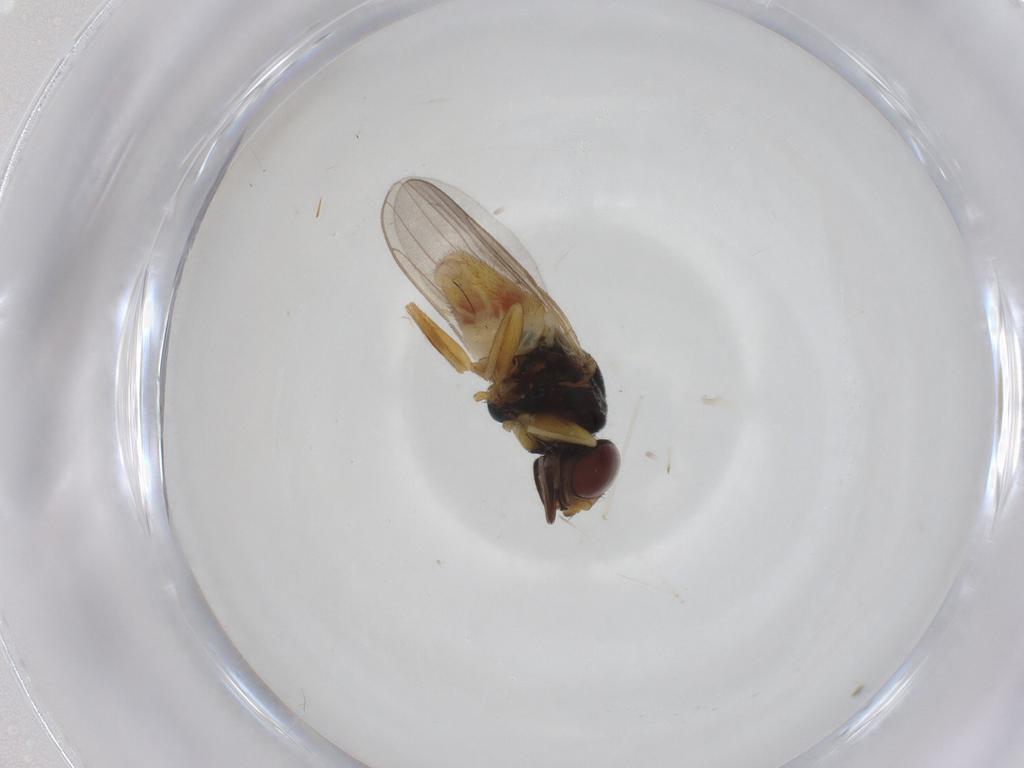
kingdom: Animalia
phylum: Arthropoda
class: Insecta
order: Diptera
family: Chloropidae
